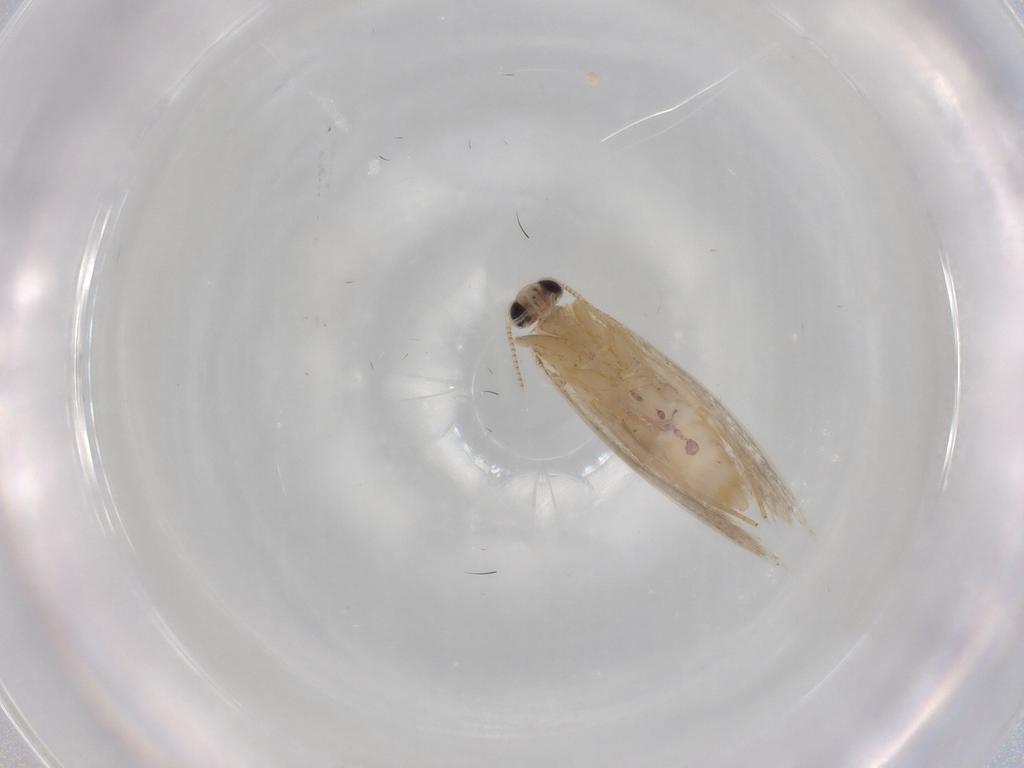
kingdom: Animalia
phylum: Arthropoda
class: Insecta
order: Lepidoptera
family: Nepticulidae
